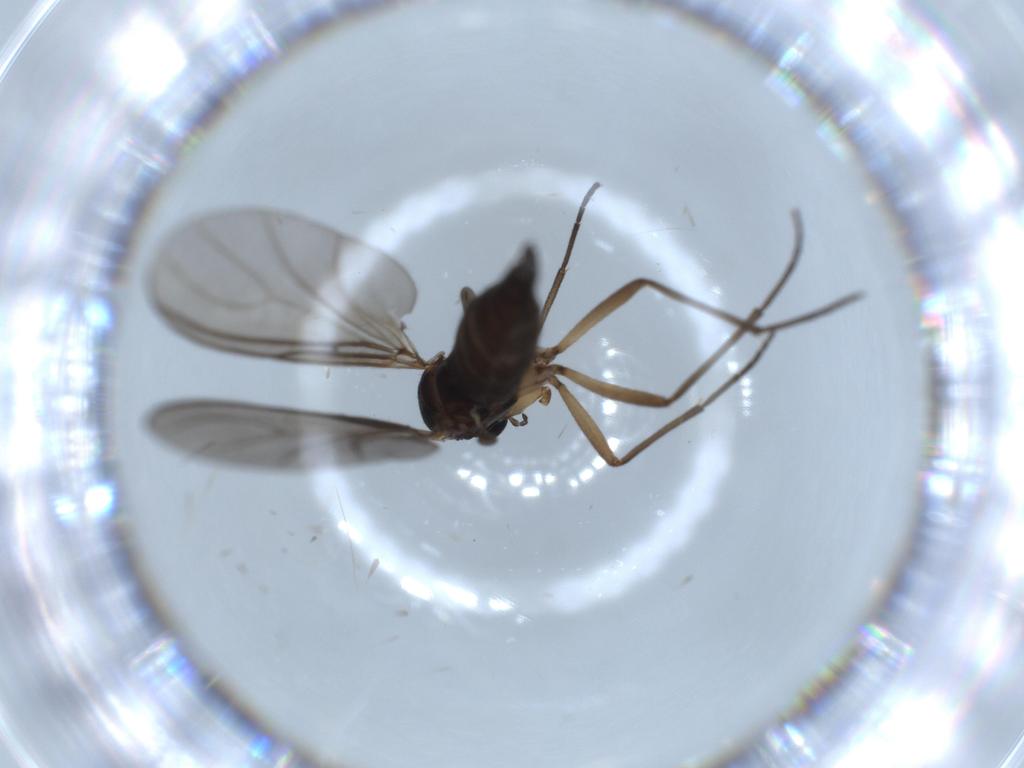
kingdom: Animalia
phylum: Arthropoda
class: Insecta
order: Diptera
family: Sciaridae
